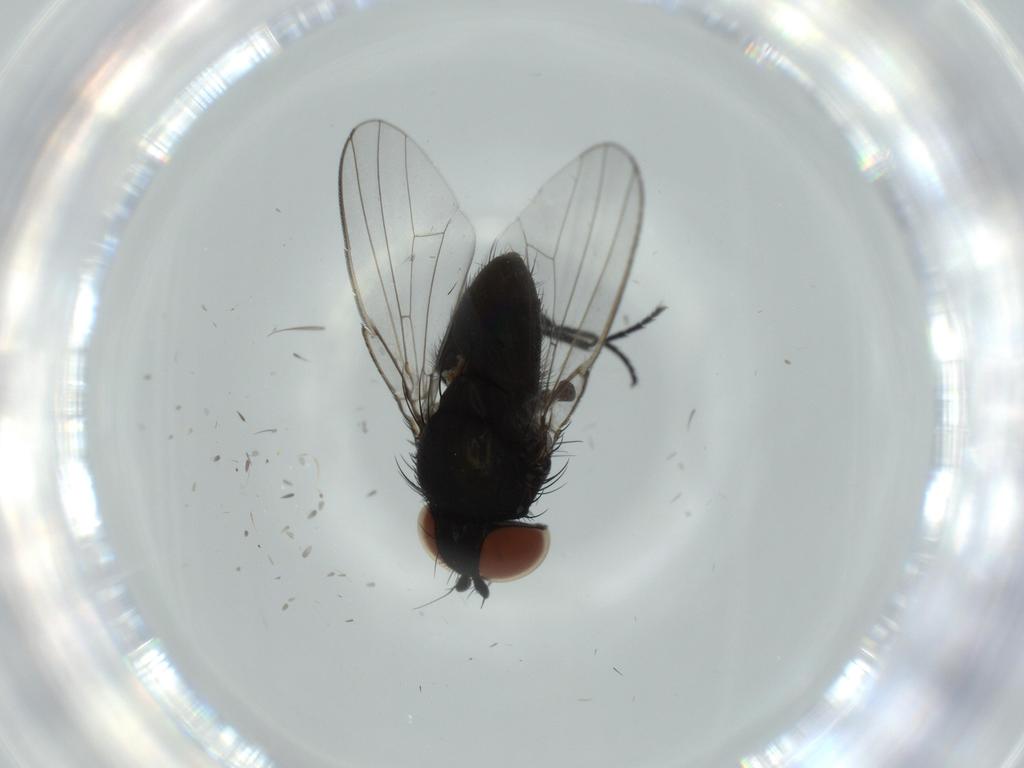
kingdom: Animalia
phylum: Arthropoda
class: Insecta
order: Diptera
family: Milichiidae
